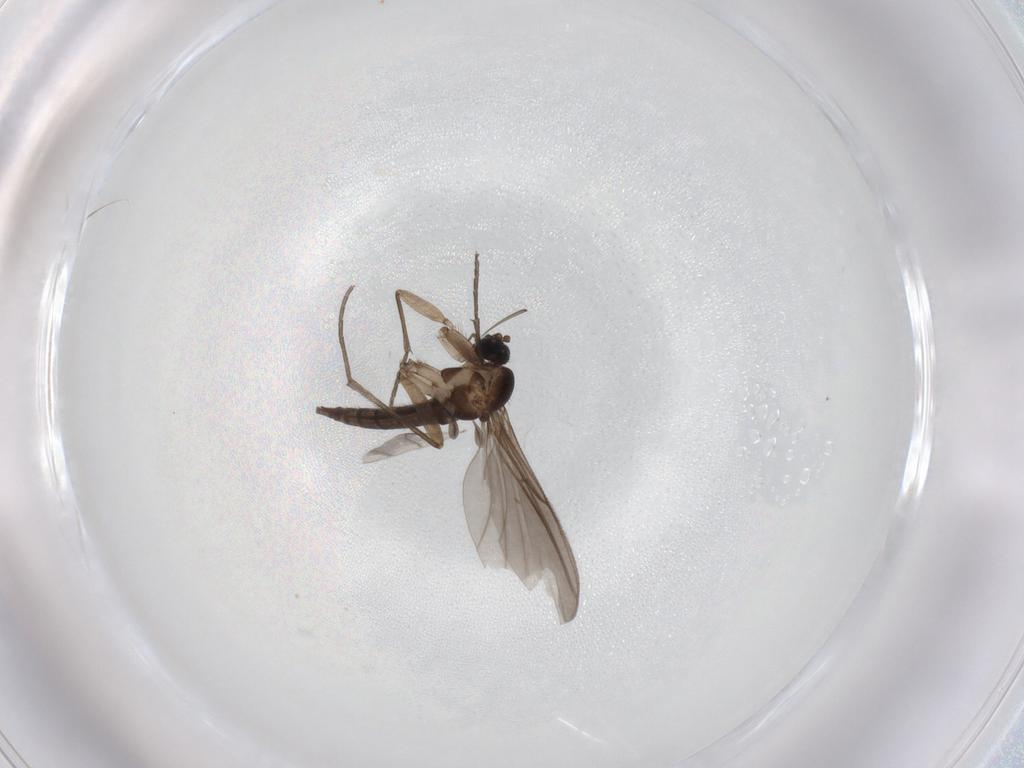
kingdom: Animalia
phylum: Arthropoda
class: Insecta
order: Diptera
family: Sciaridae
